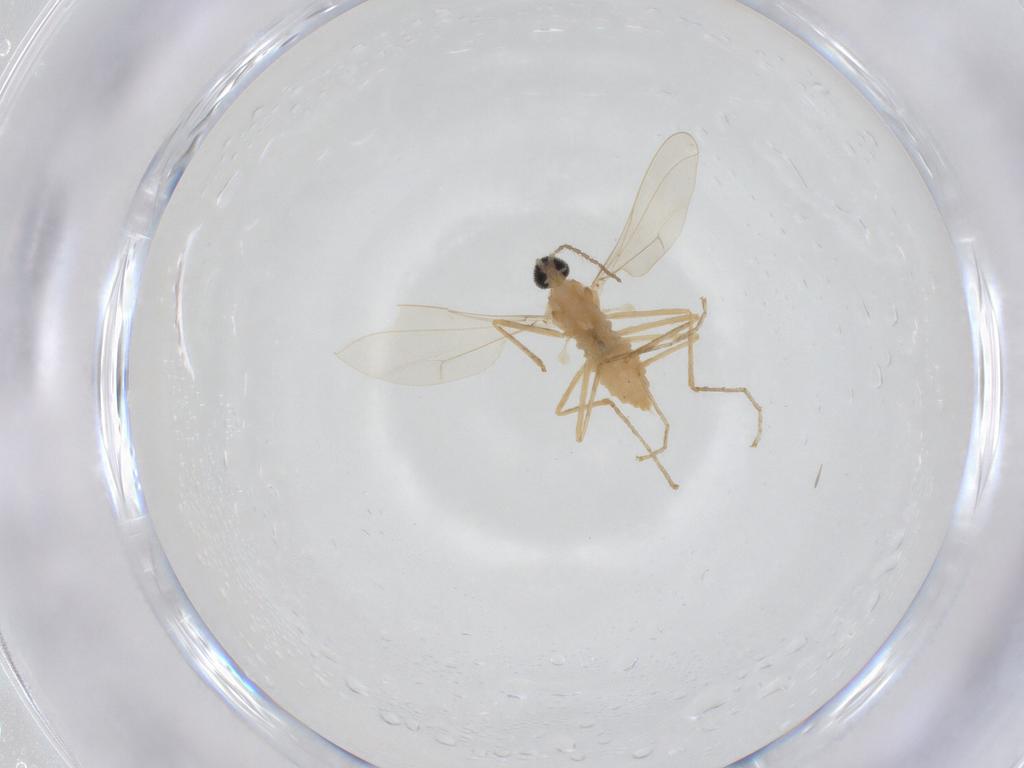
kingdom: Animalia
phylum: Arthropoda
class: Insecta
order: Diptera
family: Cecidomyiidae
